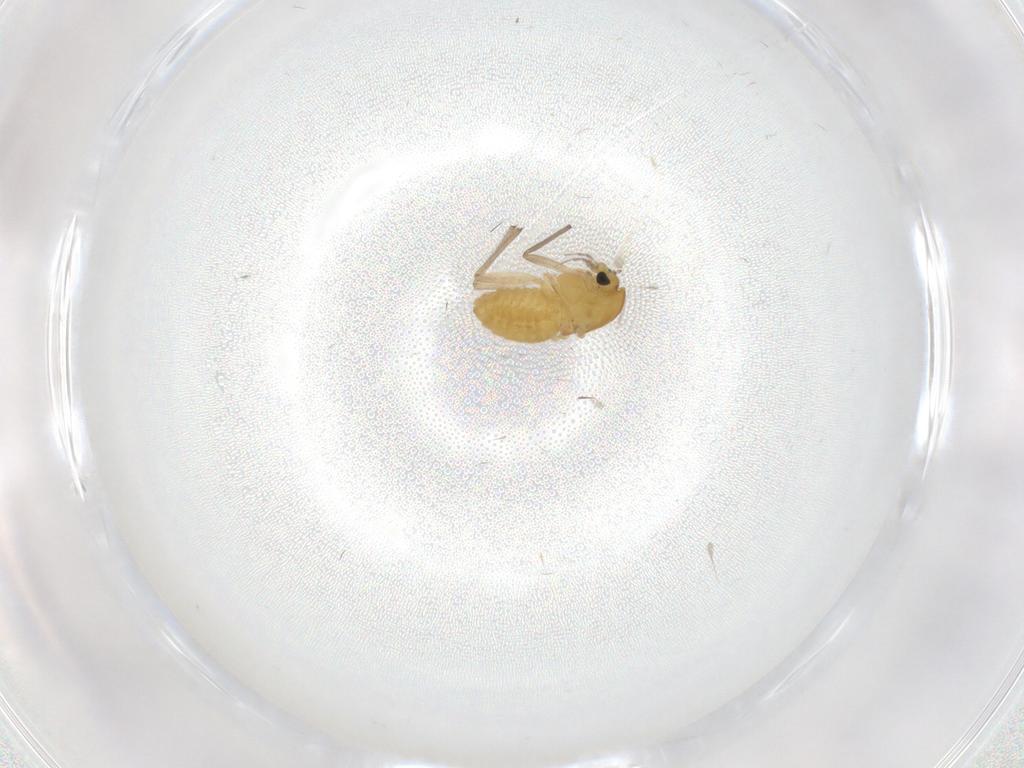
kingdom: Animalia
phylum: Arthropoda
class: Insecta
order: Diptera
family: Chironomidae
